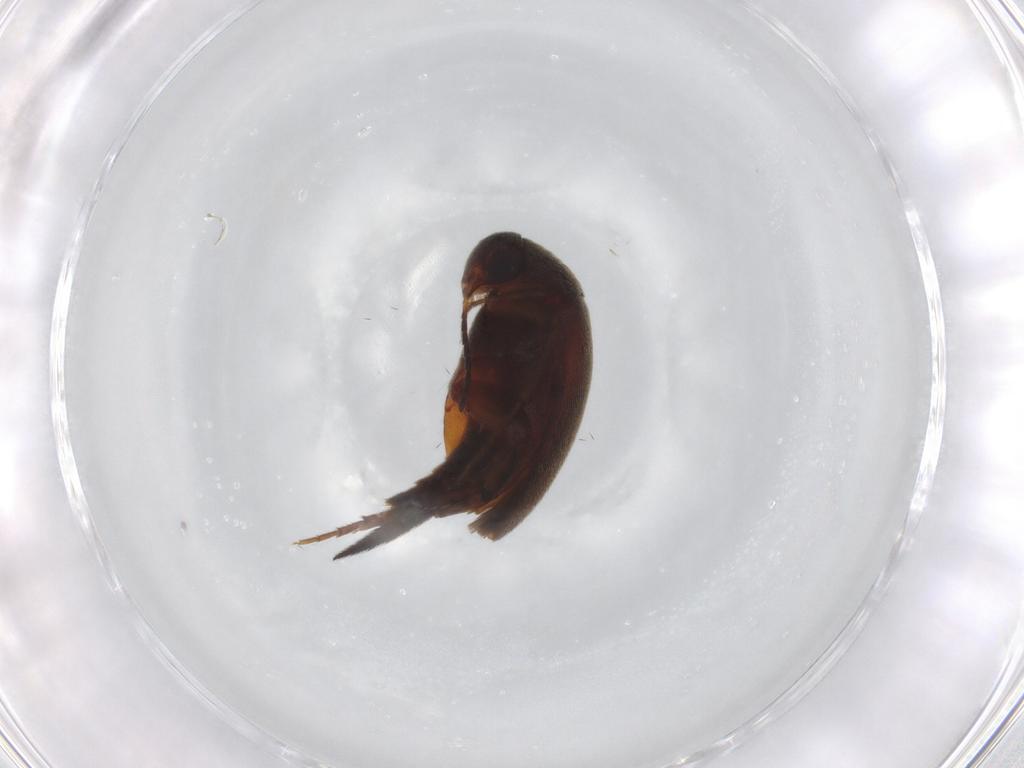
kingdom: Animalia
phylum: Arthropoda
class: Insecta
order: Coleoptera
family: Mordellidae
